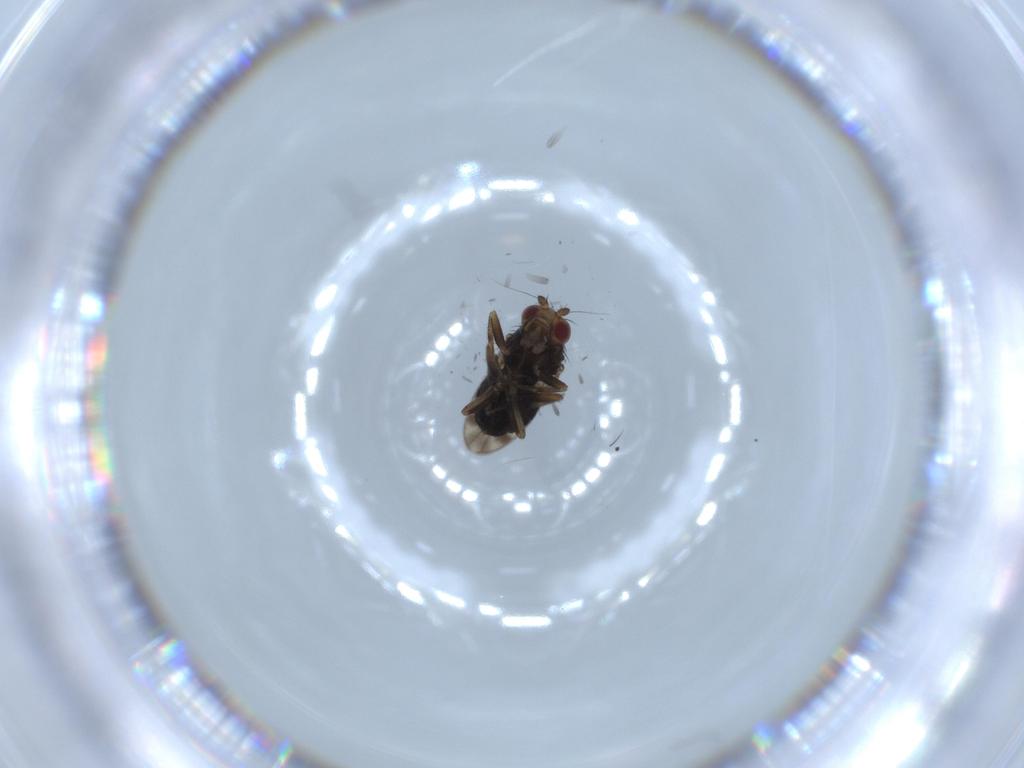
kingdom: Animalia
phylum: Arthropoda
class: Insecta
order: Diptera
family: Sphaeroceridae
